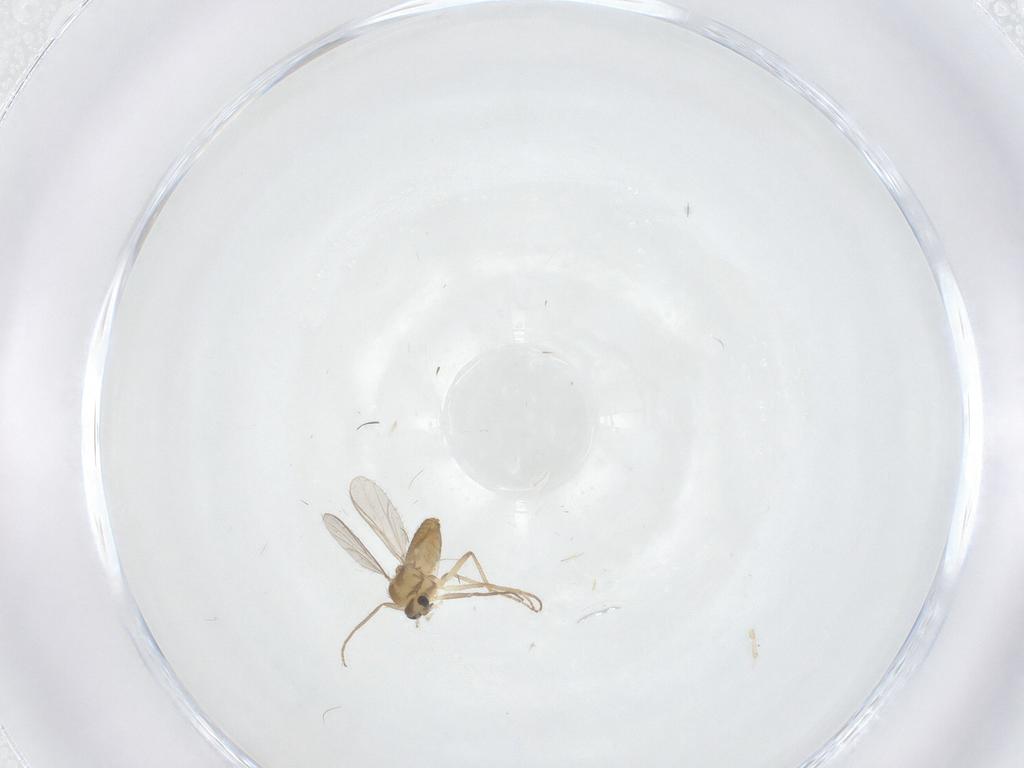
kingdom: Animalia
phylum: Arthropoda
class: Insecta
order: Diptera
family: Chironomidae
